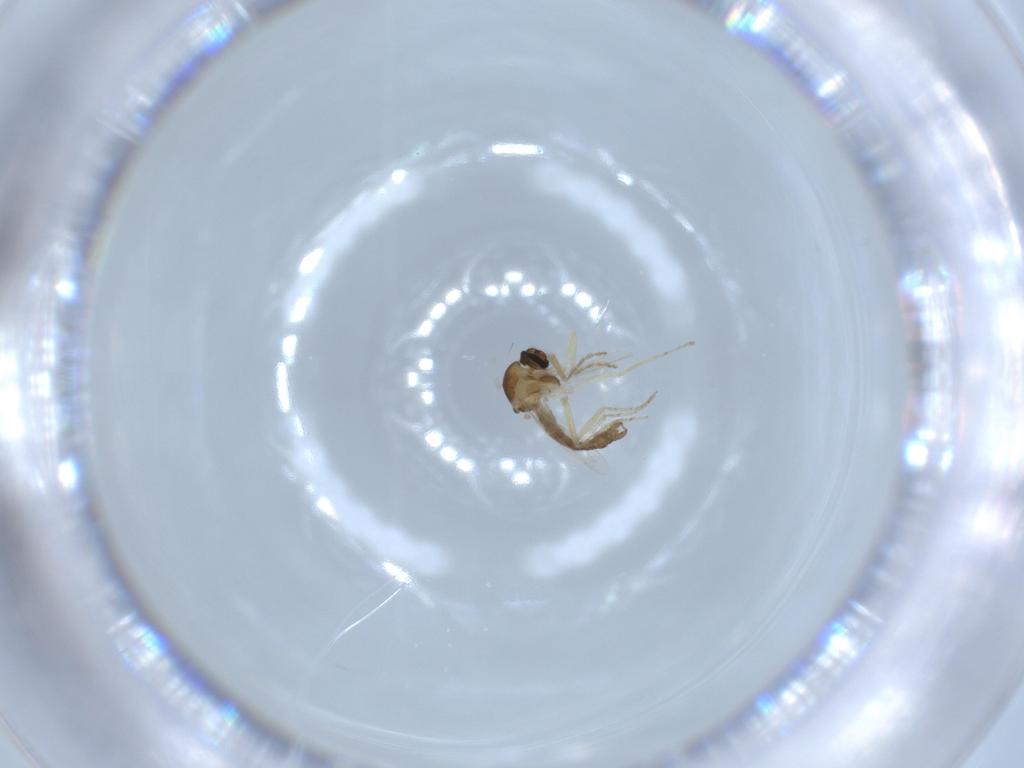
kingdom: Animalia
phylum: Arthropoda
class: Insecta
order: Diptera
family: Ceratopogonidae
